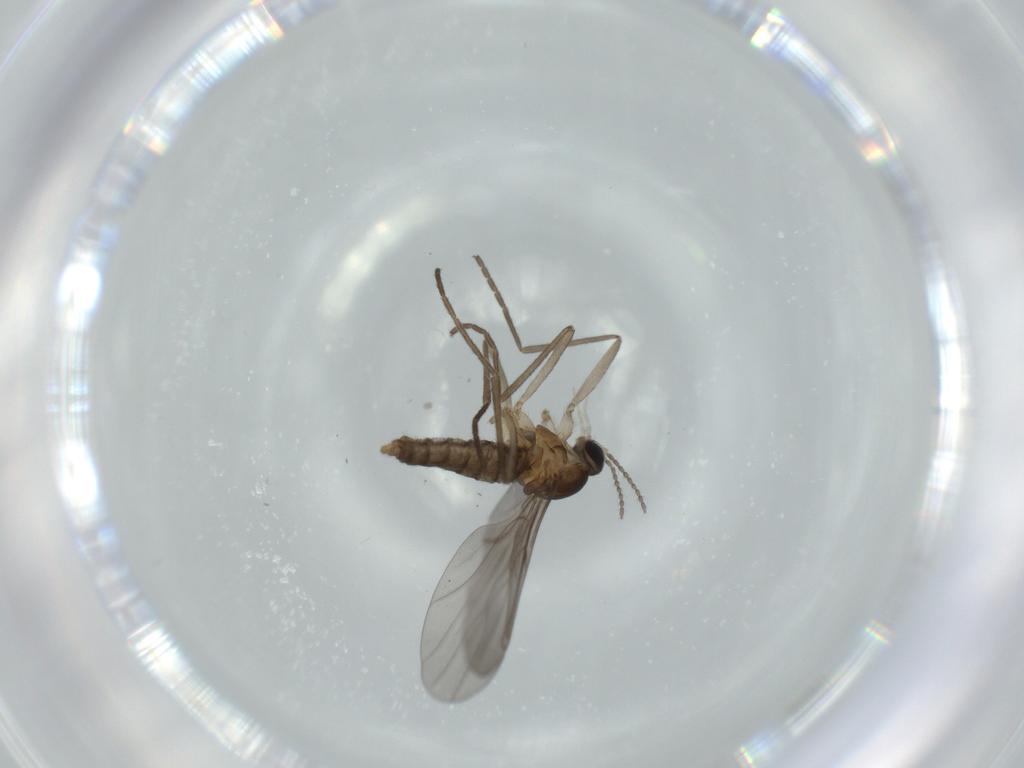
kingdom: Animalia
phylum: Arthropoda
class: Insecta
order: Diptera
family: Cecidomyiidae
